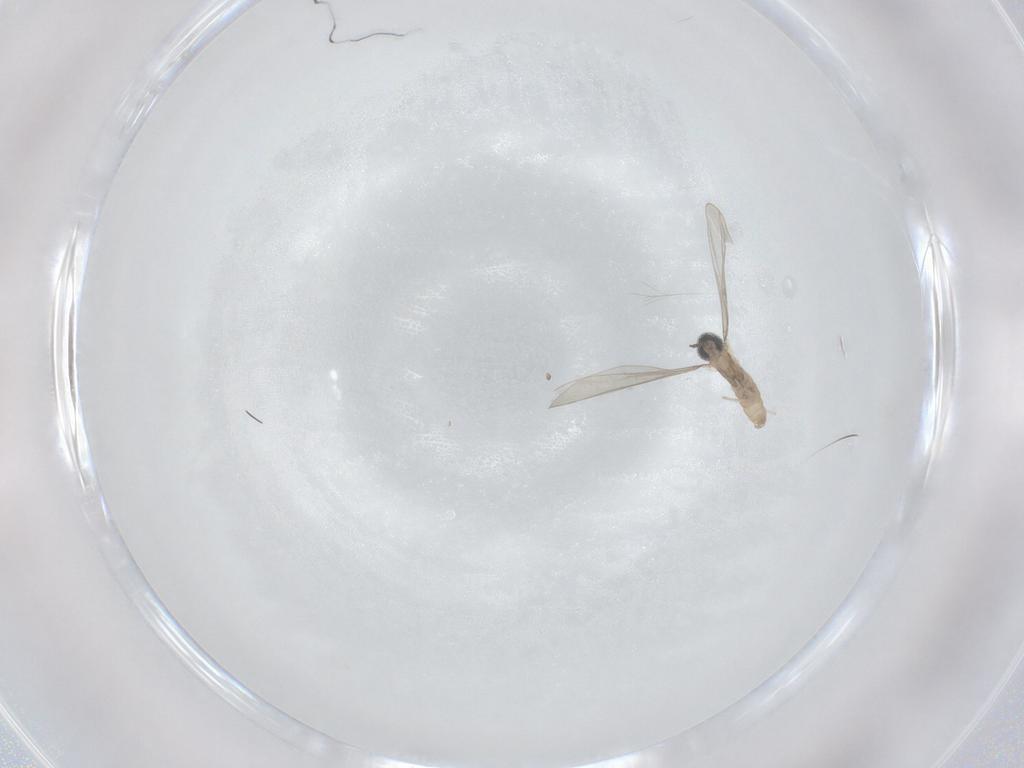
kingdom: Animalia
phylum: Arthropoda
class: Insecta
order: Diptera
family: Cecidomyiidae
